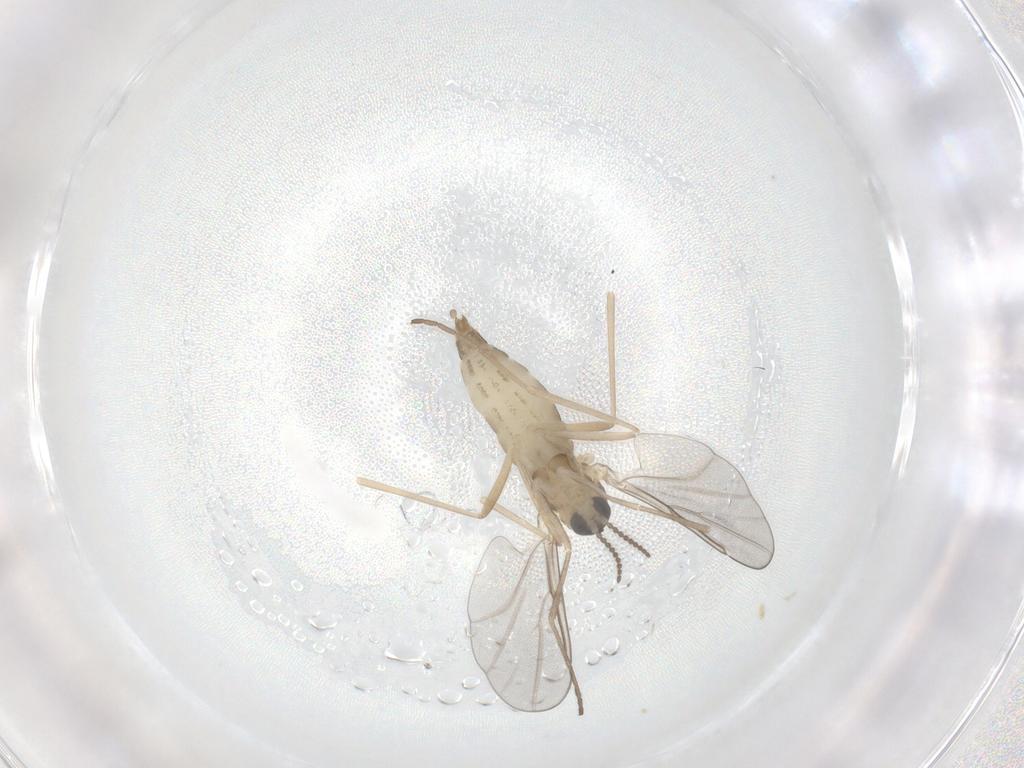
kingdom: Animalia
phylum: Arthropoda
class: Insecta
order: Diptera
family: Cecidomyiidae
